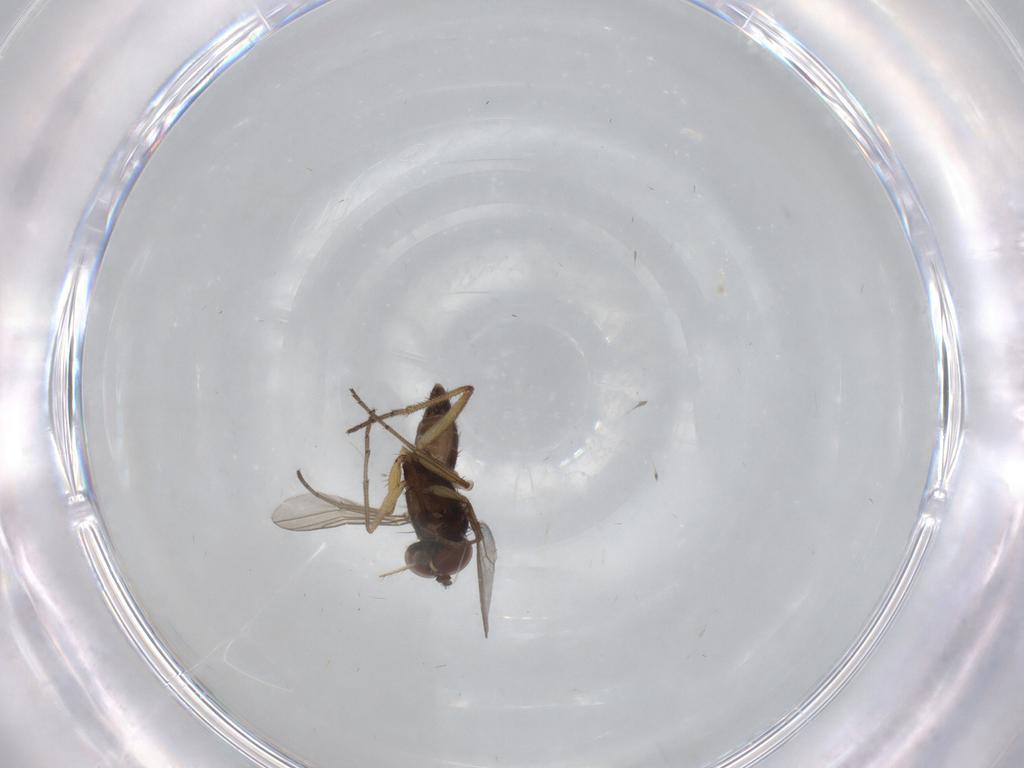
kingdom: Animalia
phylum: Arthropoda
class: Insecta
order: Diptera
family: Dolichopodidae
